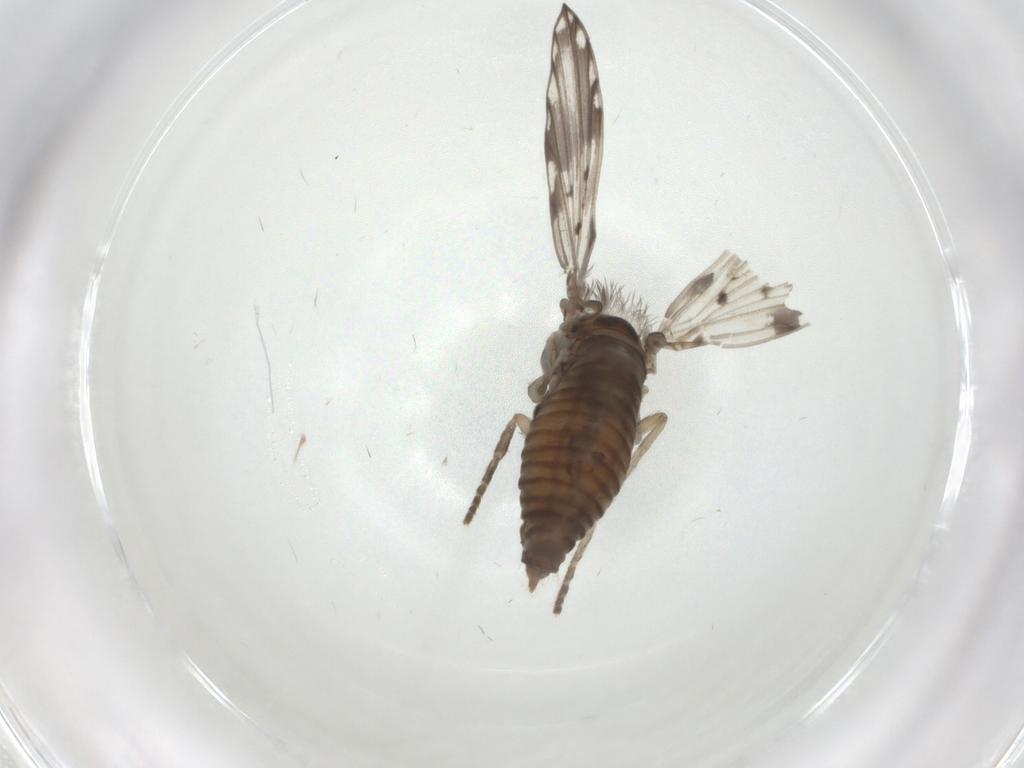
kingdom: Animalia
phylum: Arthropoda
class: Insecta
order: Diptera
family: Psychodidae
